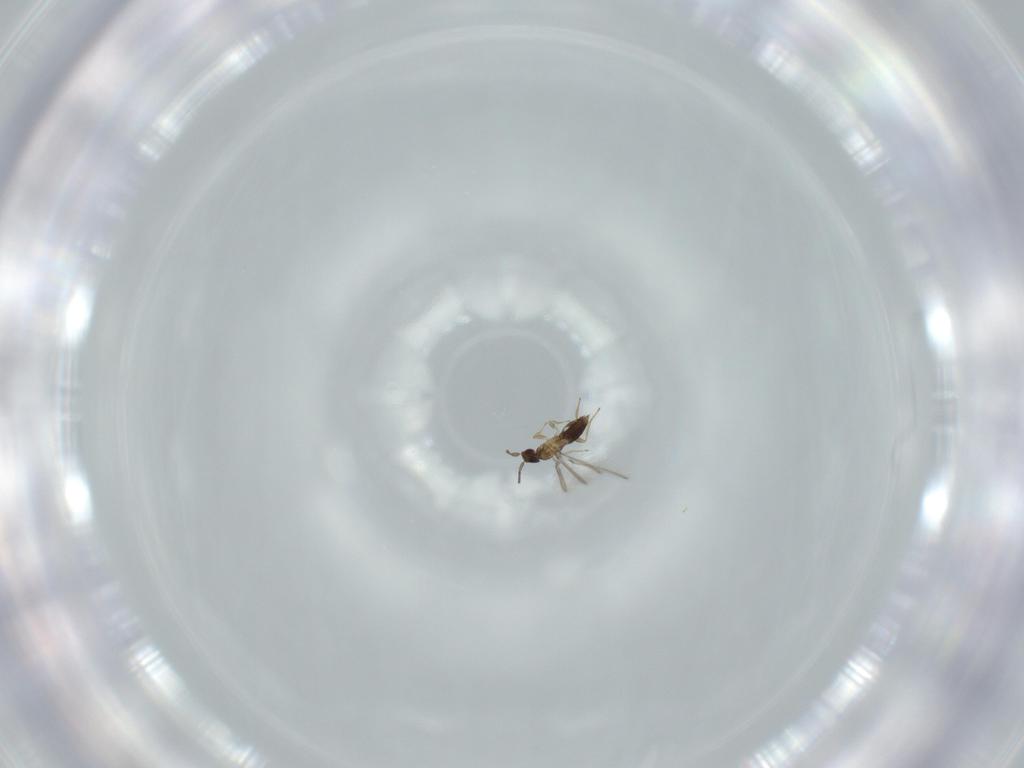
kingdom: Animalia
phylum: Arthropoda
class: Insecta
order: Hymenoptera
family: Mymaridae
